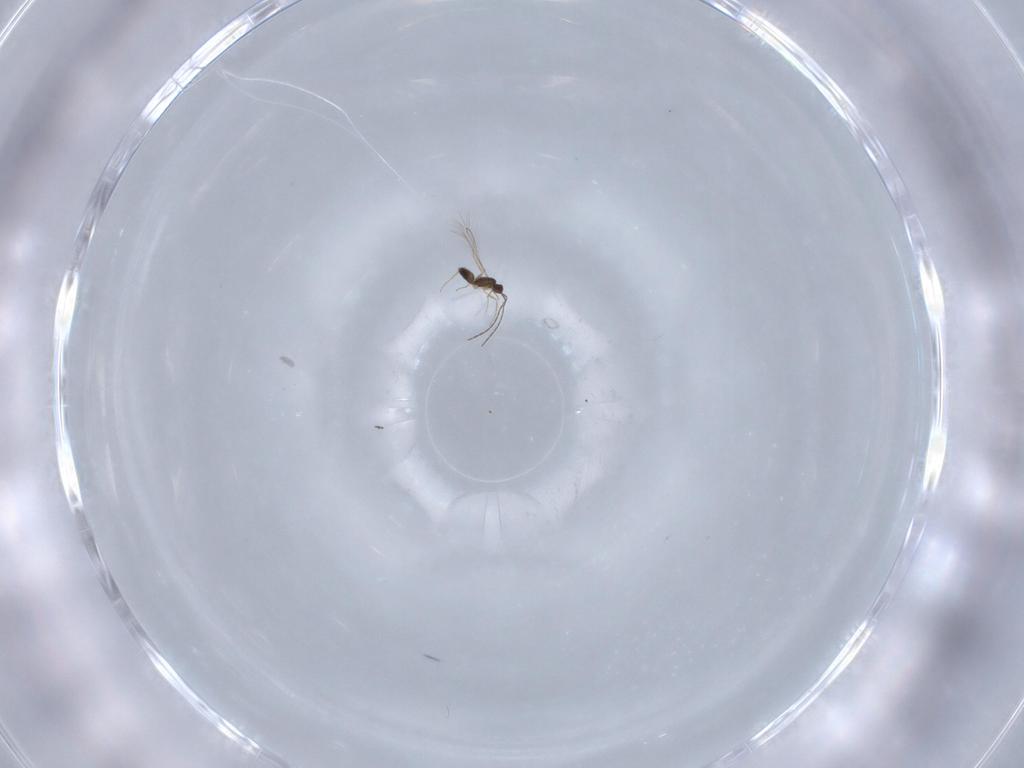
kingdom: Animalia
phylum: Arthropoda
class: Insecta
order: Hymenoptera
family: Mymaridae
